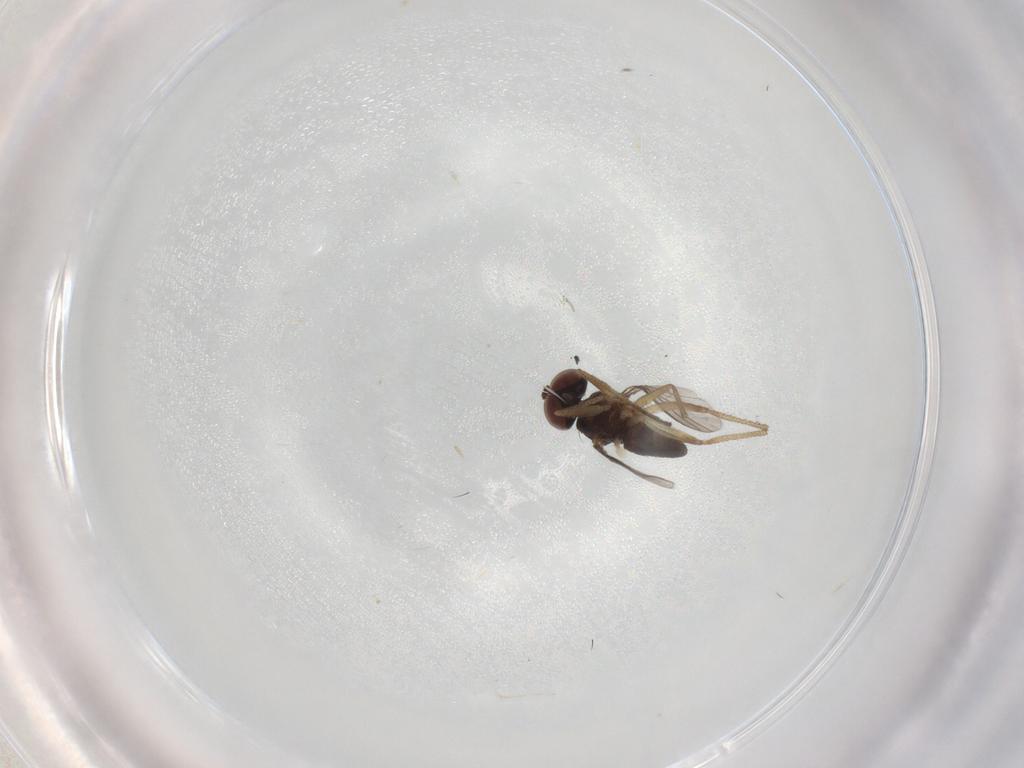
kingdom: Animalia
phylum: Arthropoda
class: Insecta
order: Diptera
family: Dolichopodidae
